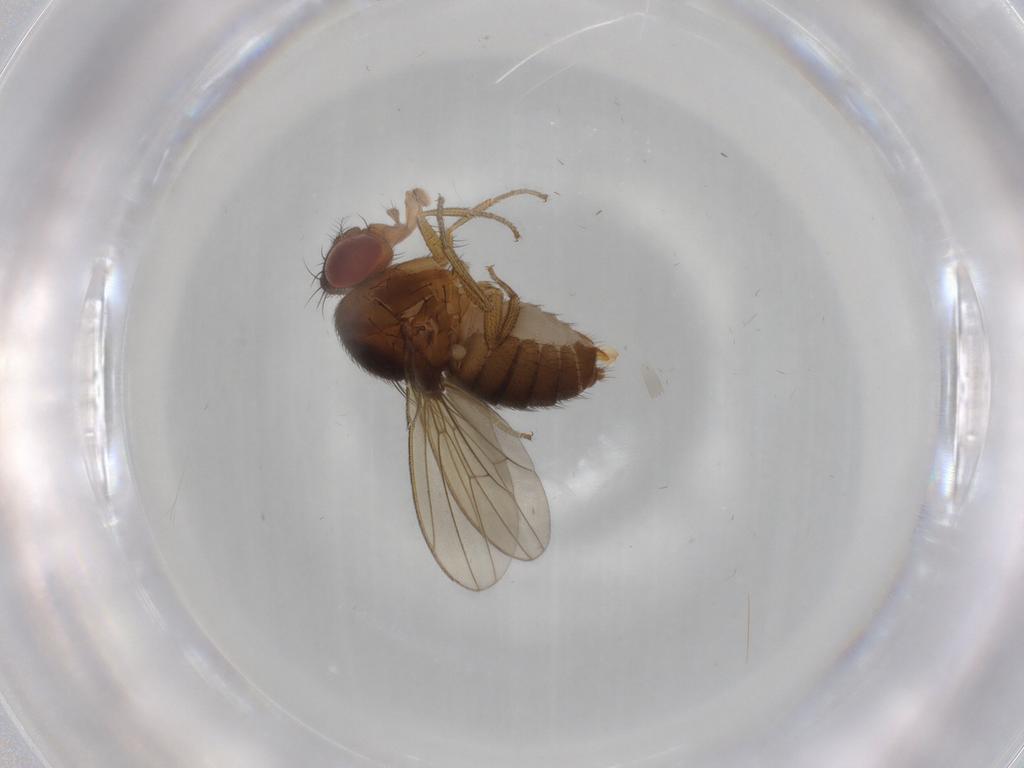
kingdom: Animalia
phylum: Arthropoda
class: Insecta
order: Diptera
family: Drosophilidae
